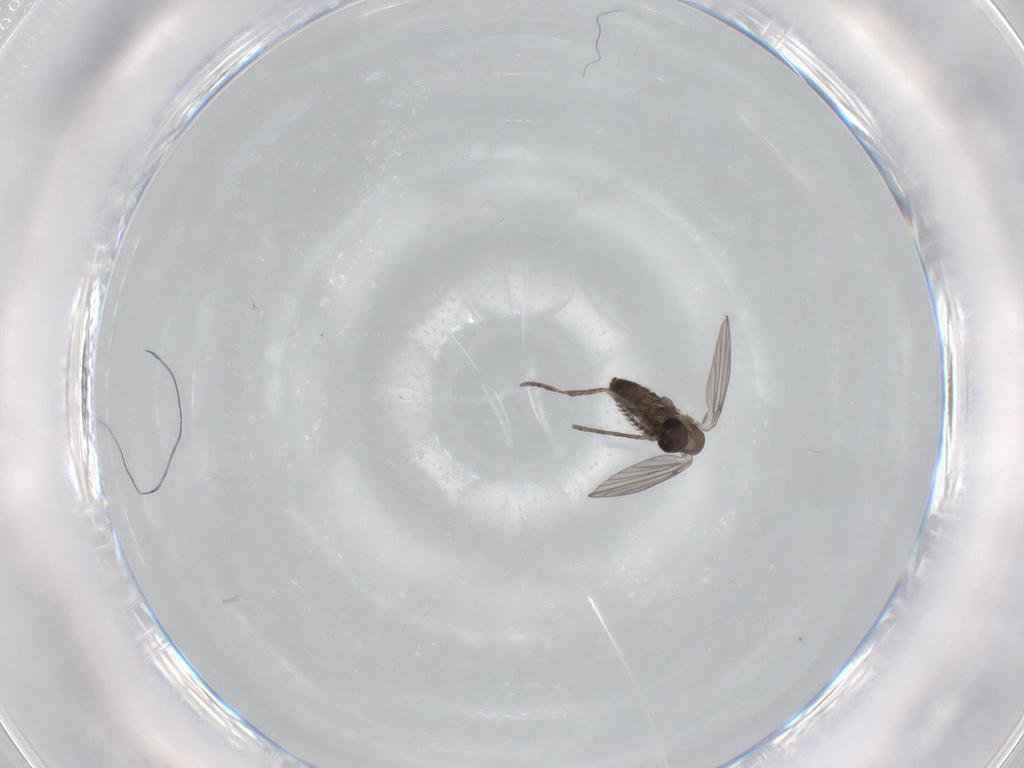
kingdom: Animalia
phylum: Arthropoda
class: Insecta
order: Diptera
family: Psychodidae
